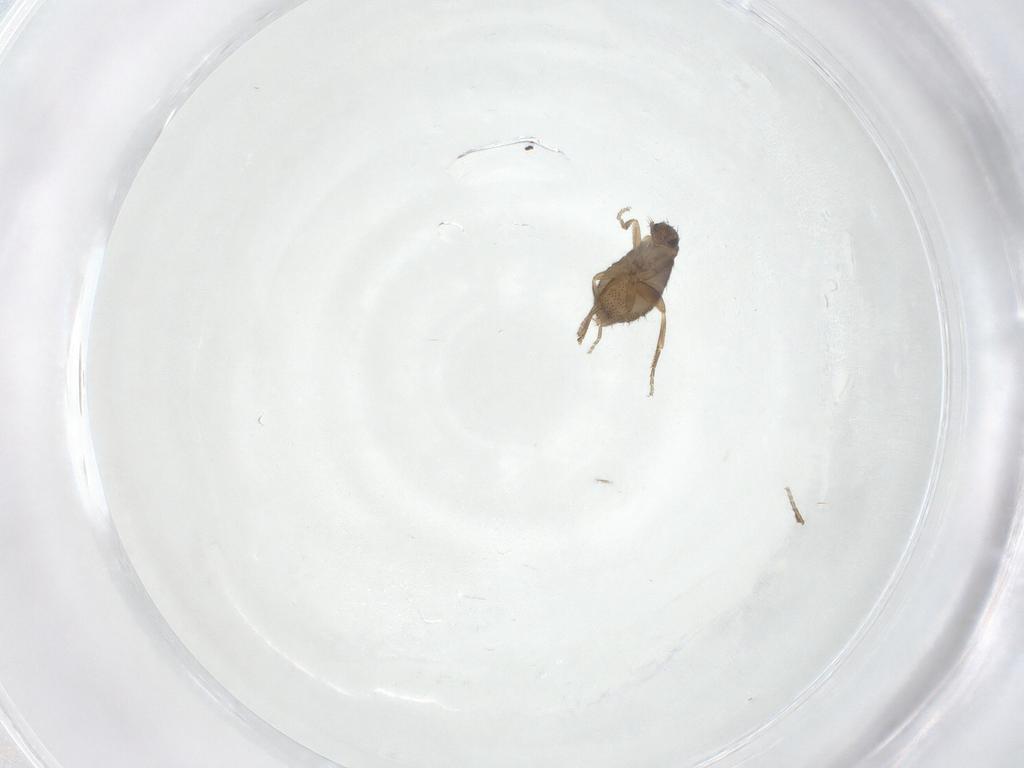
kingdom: Animalia
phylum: Arthropoda
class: Insecta
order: Diptera
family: Phoridae
